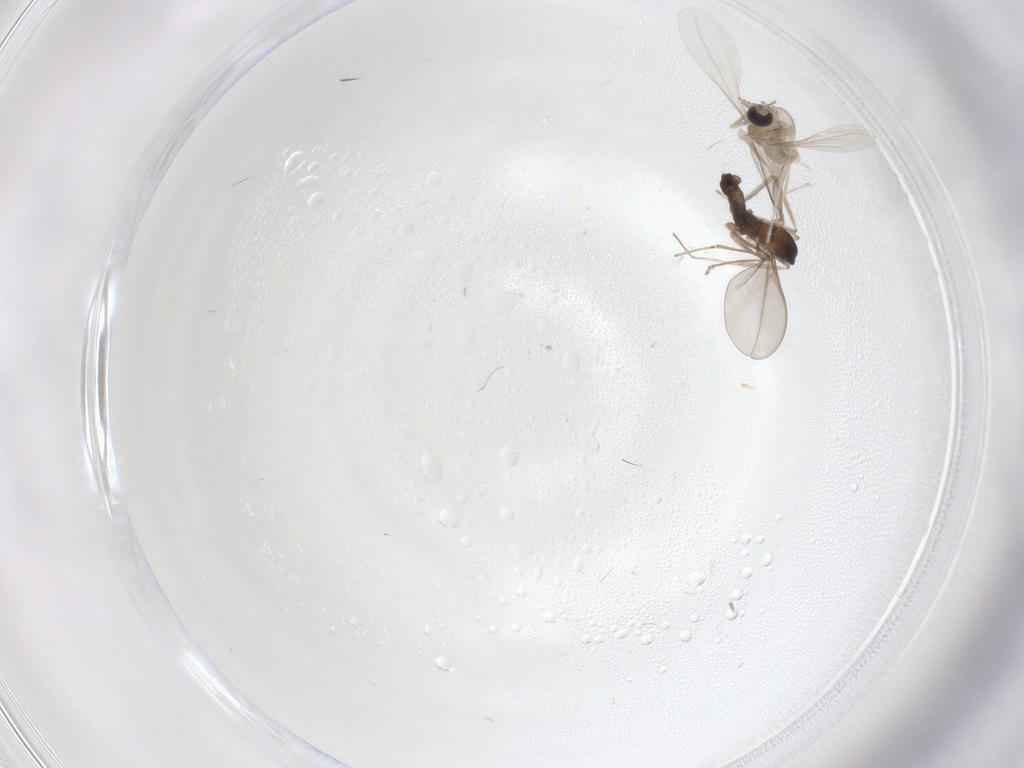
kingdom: Animalia
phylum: Arthropoda
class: Insecta
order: Diptera
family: Cecidomyiidae
